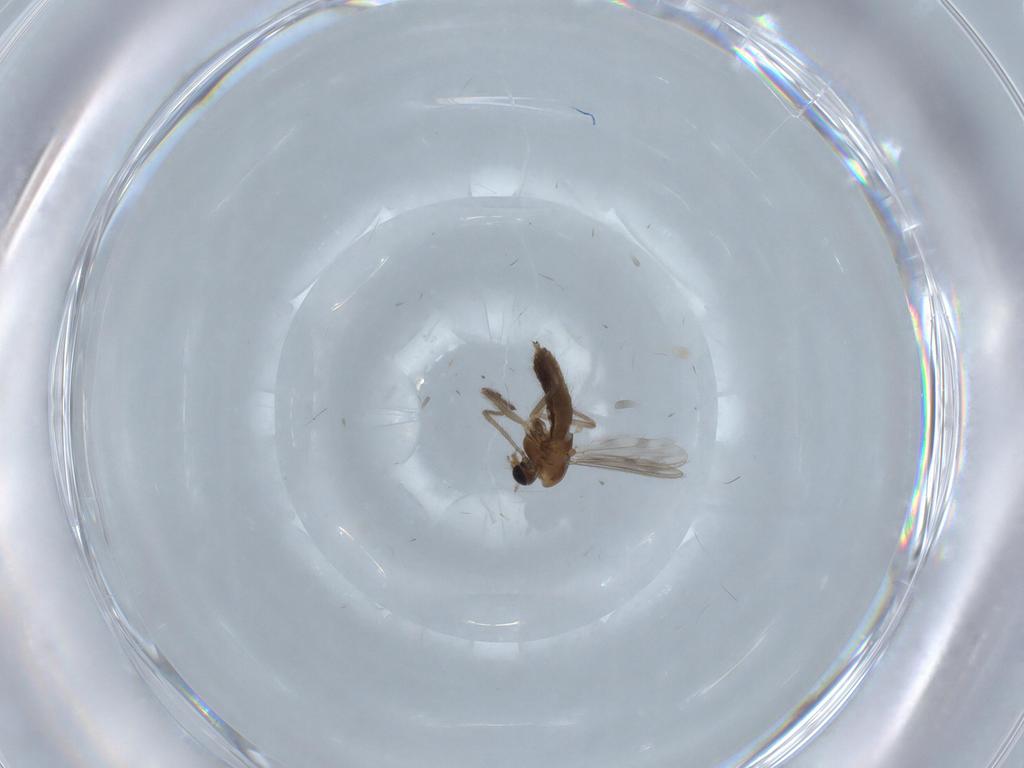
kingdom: Animalia
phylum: Arthropoda
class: Insecta
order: Diptera
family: Chironomidae
